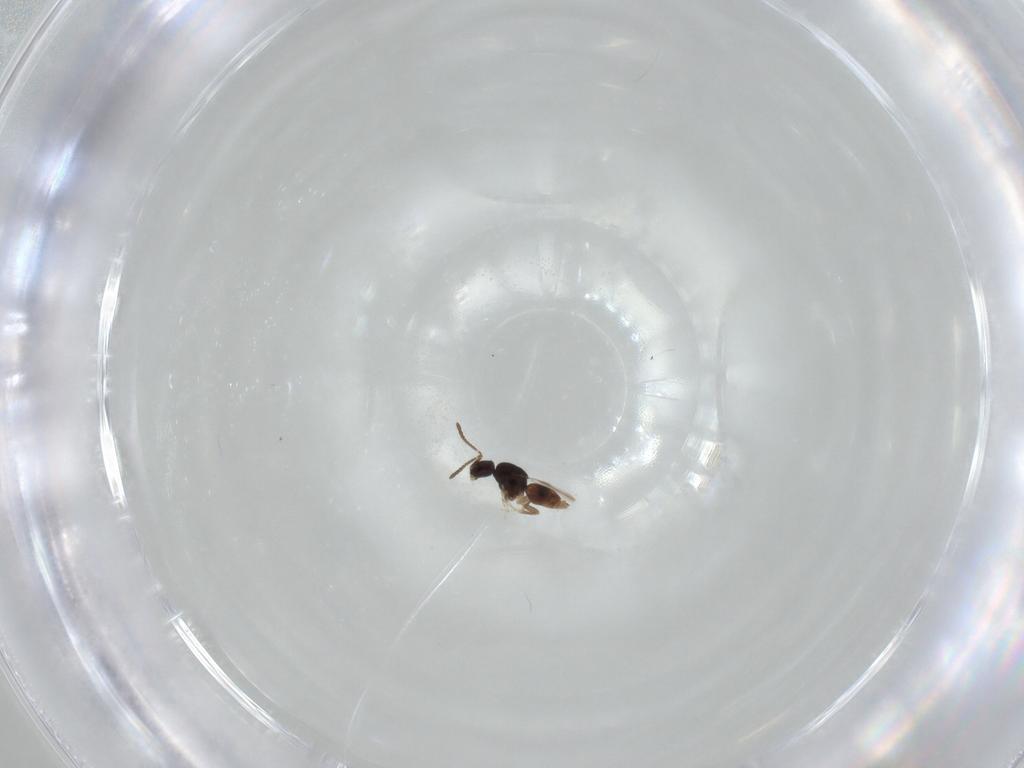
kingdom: Animalia
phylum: Arthropoda
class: Insecta
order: Hymenoptera
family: Ceraphronidae
